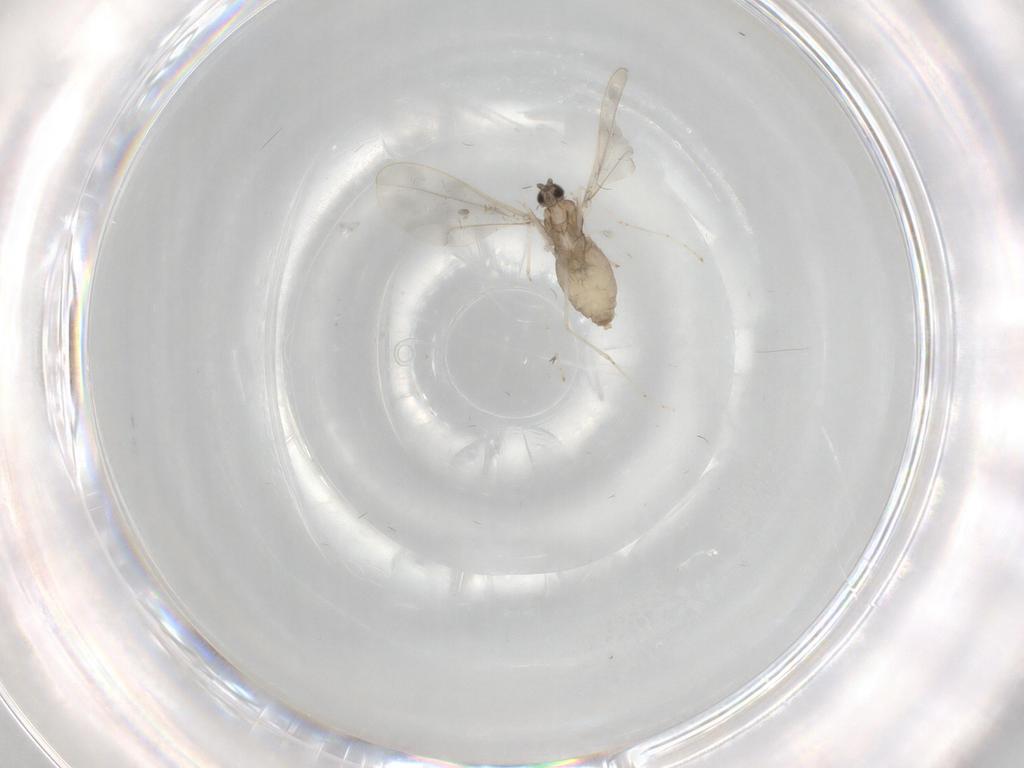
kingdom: Animalia
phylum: Arthropoda
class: Insecta
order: Diptera
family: Cecidomyiidae
